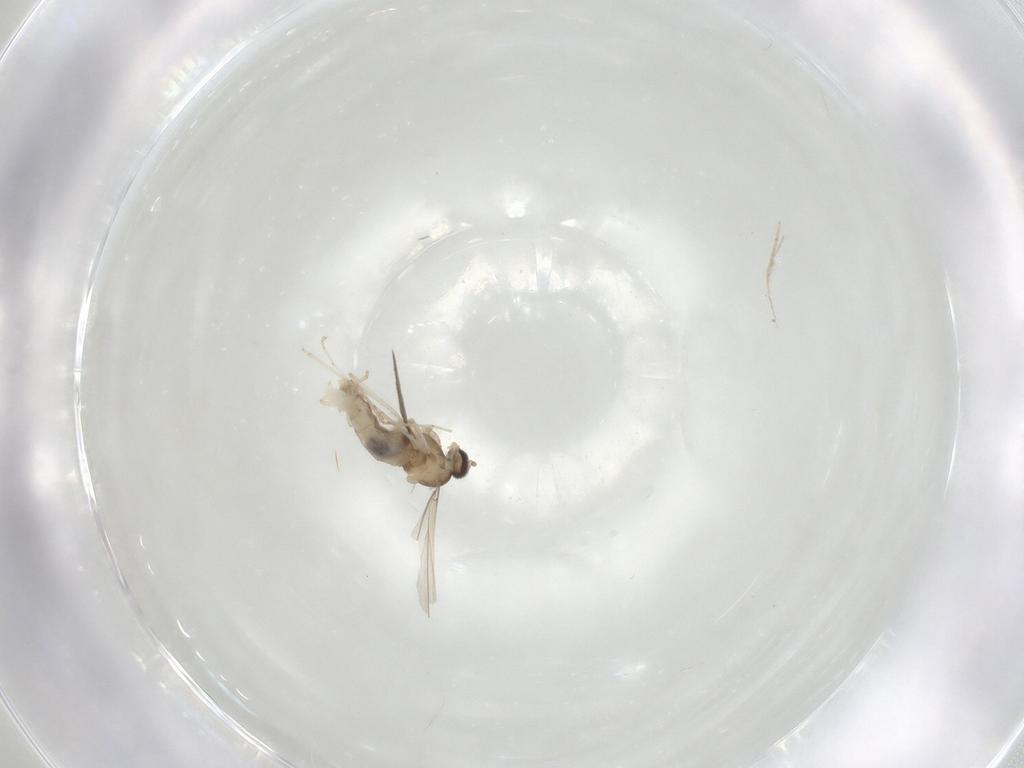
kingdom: Animalia
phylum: Arthropoda
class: Insecta
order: Diptera
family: Cecidomyiidae
